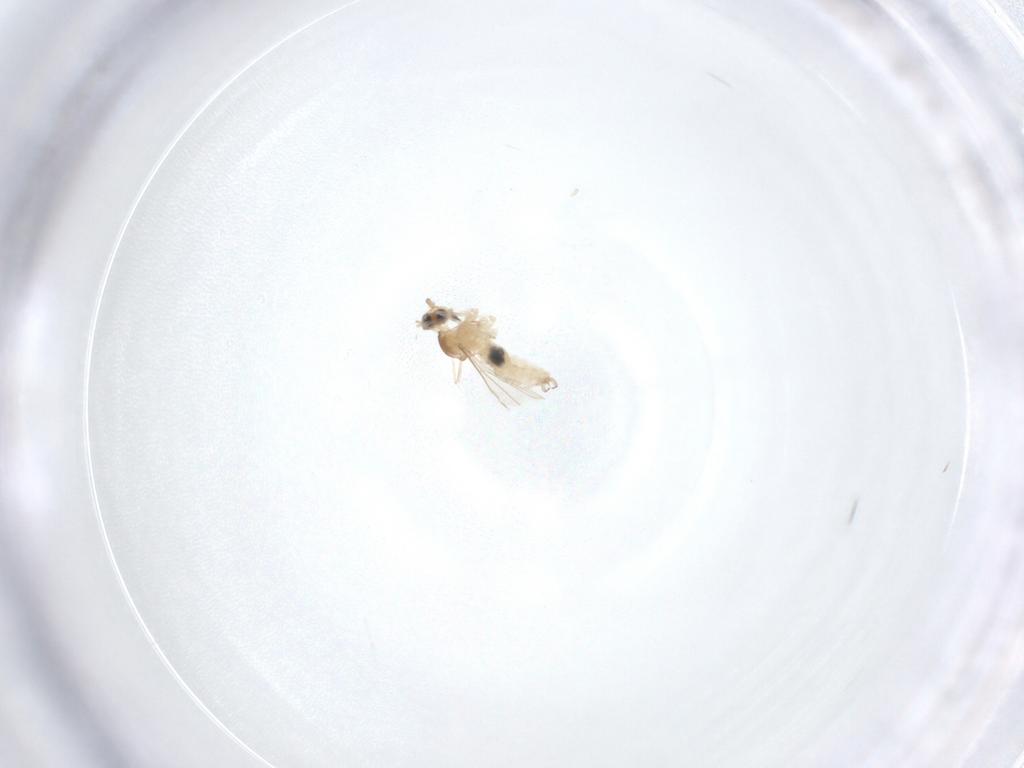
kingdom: Animalia
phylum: Arthropoda
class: Insecta
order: Diptera
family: Cecidomyiidae
